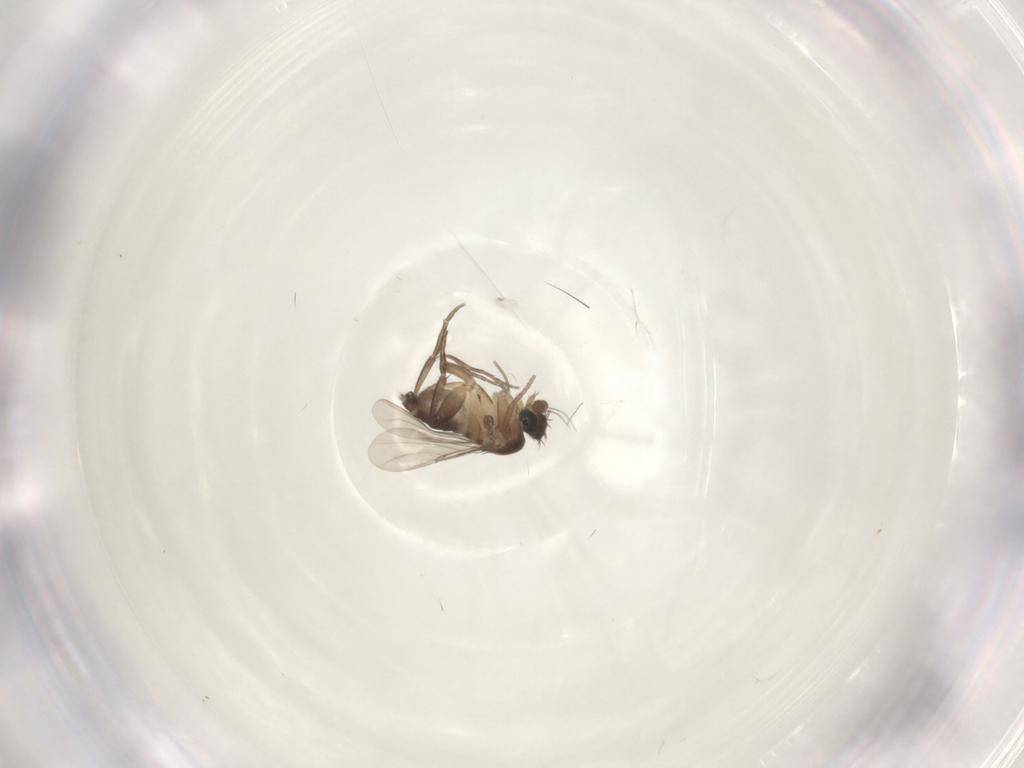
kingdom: Animalia
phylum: Arthropoda
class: Insecta
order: Diptera
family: Phoridae
